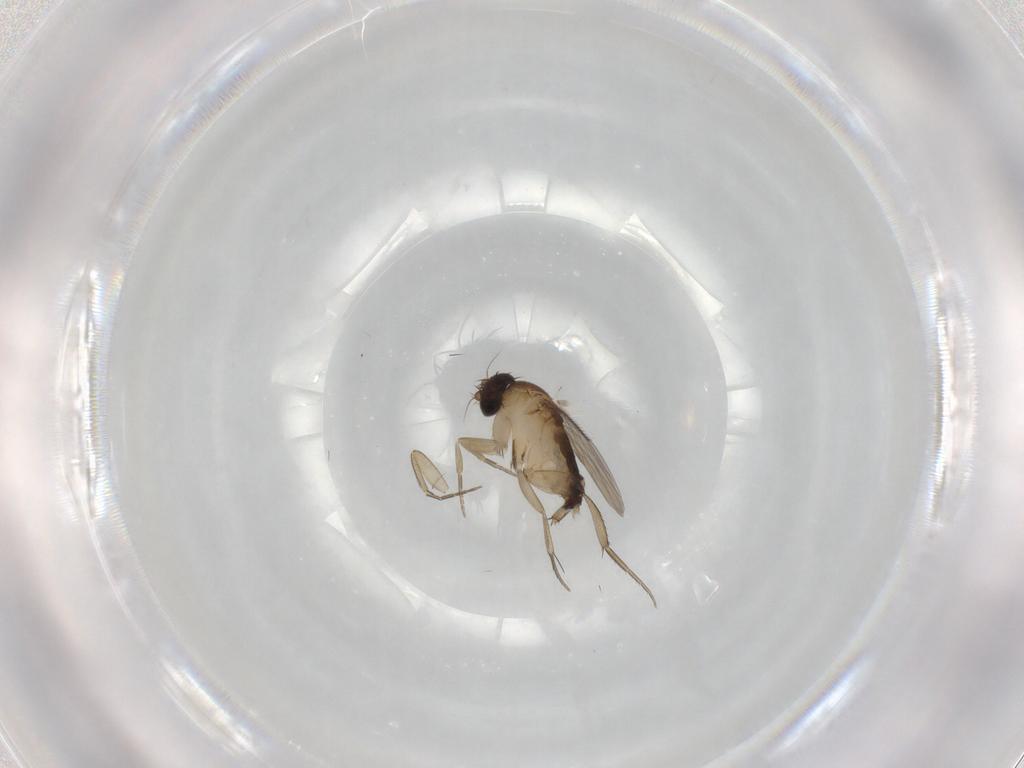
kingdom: Animalia
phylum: Arthropoda
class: Insecta
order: Diptera
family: Phoridae
